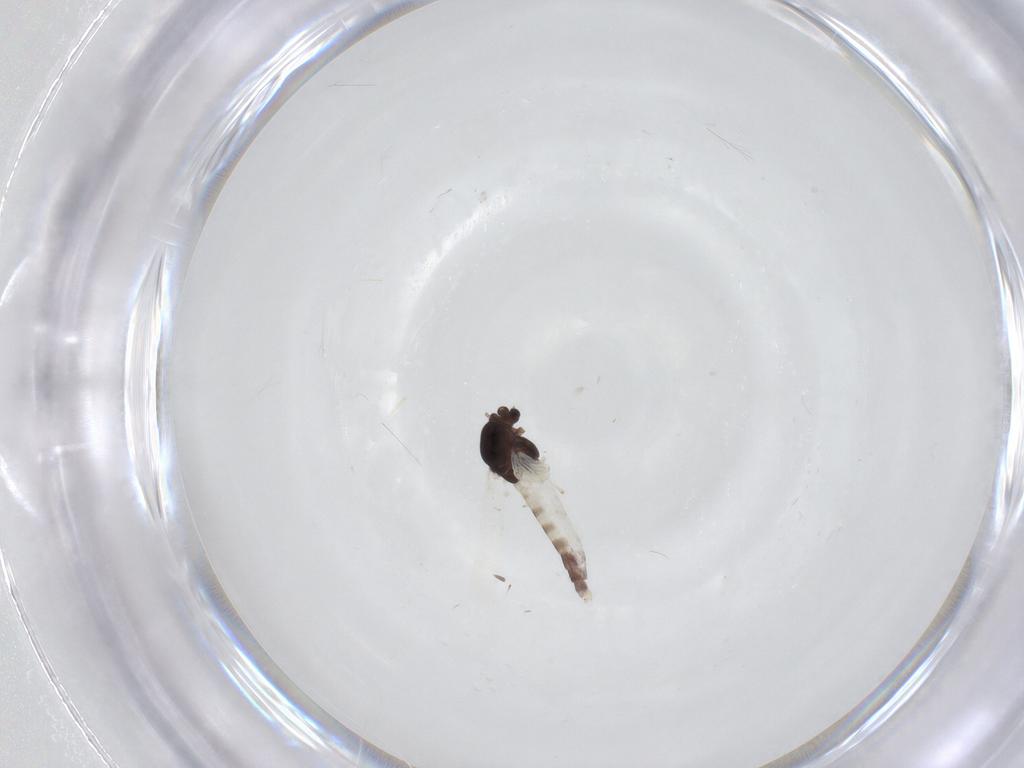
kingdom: Animalia
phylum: Arthropoda
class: Insecta
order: Diptera
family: Chironomidae
